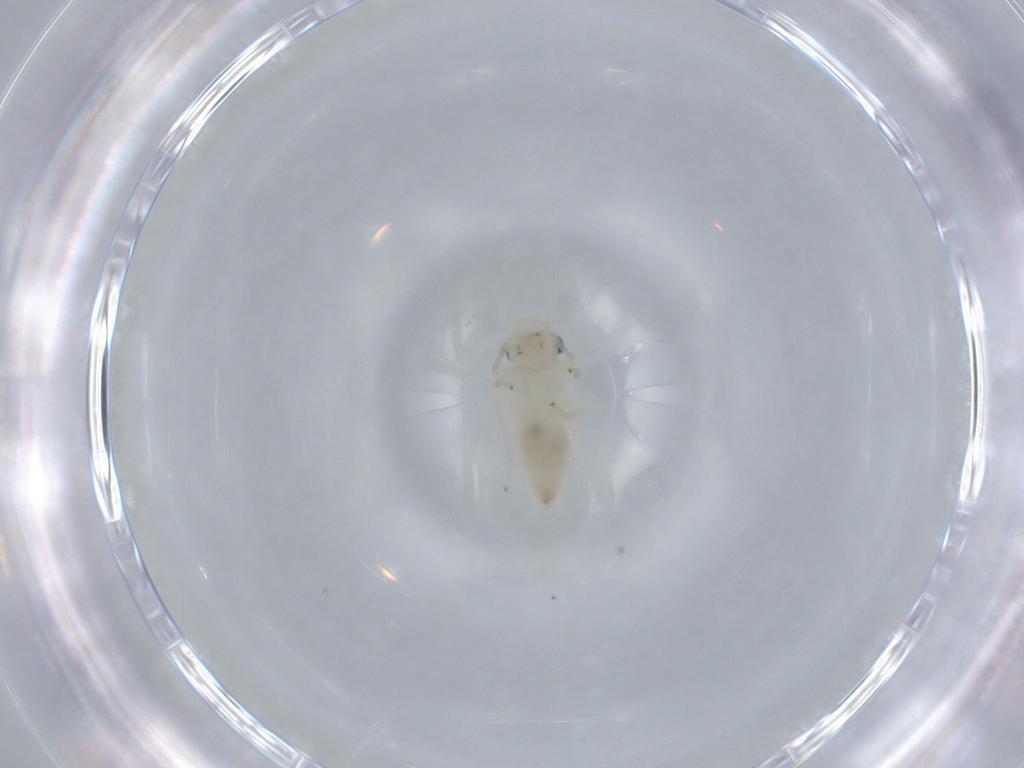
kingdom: Animalia
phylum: Arthropoda
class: Insecta
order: Psocodea
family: Caeciliusidae
